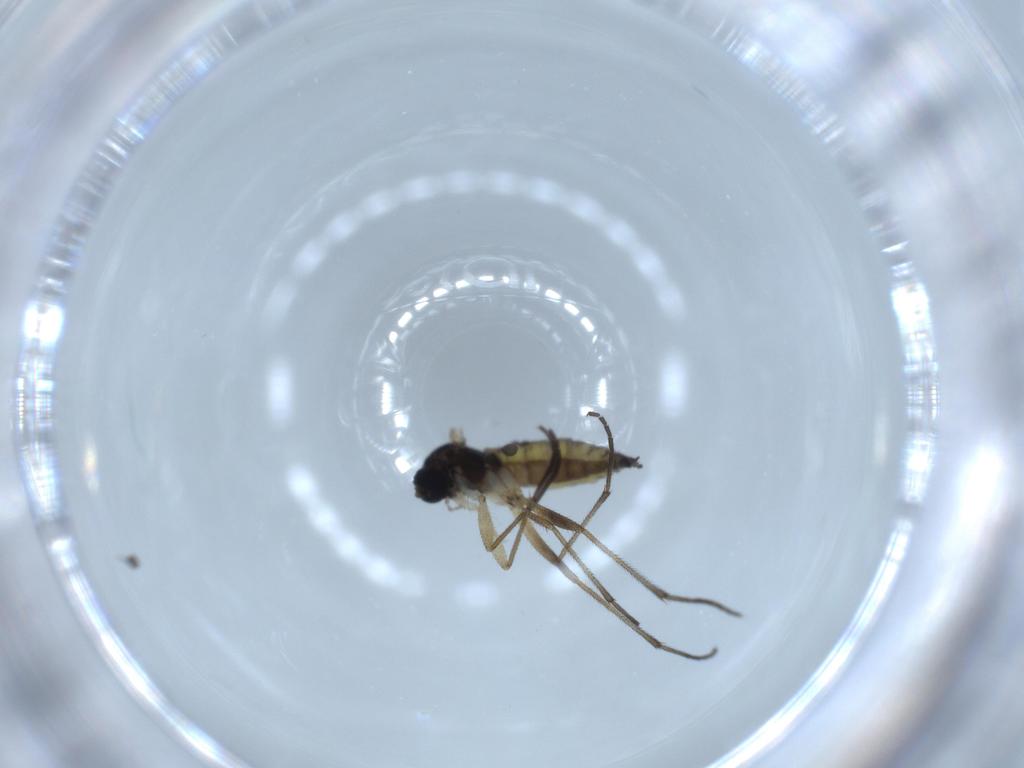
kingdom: Animalia
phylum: Arthropoda
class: Insecta
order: Diptera
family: Sciaridae
